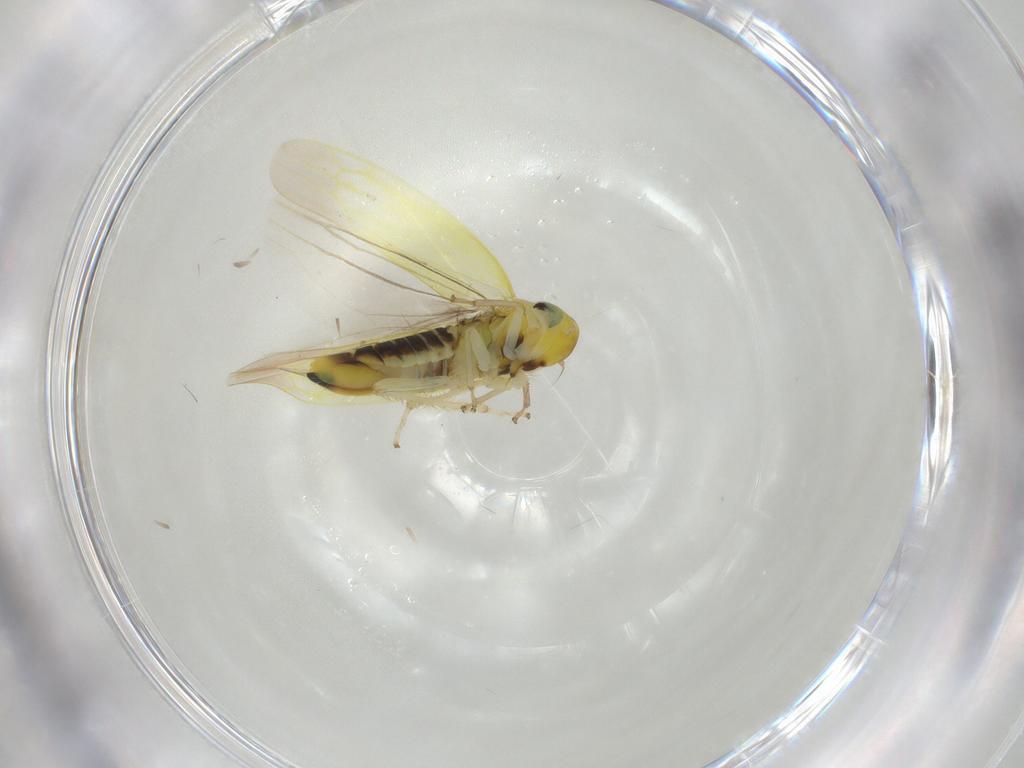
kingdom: Animalia
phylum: Arthropoda
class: Insecta
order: Hemiptera
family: Cicadellidae
